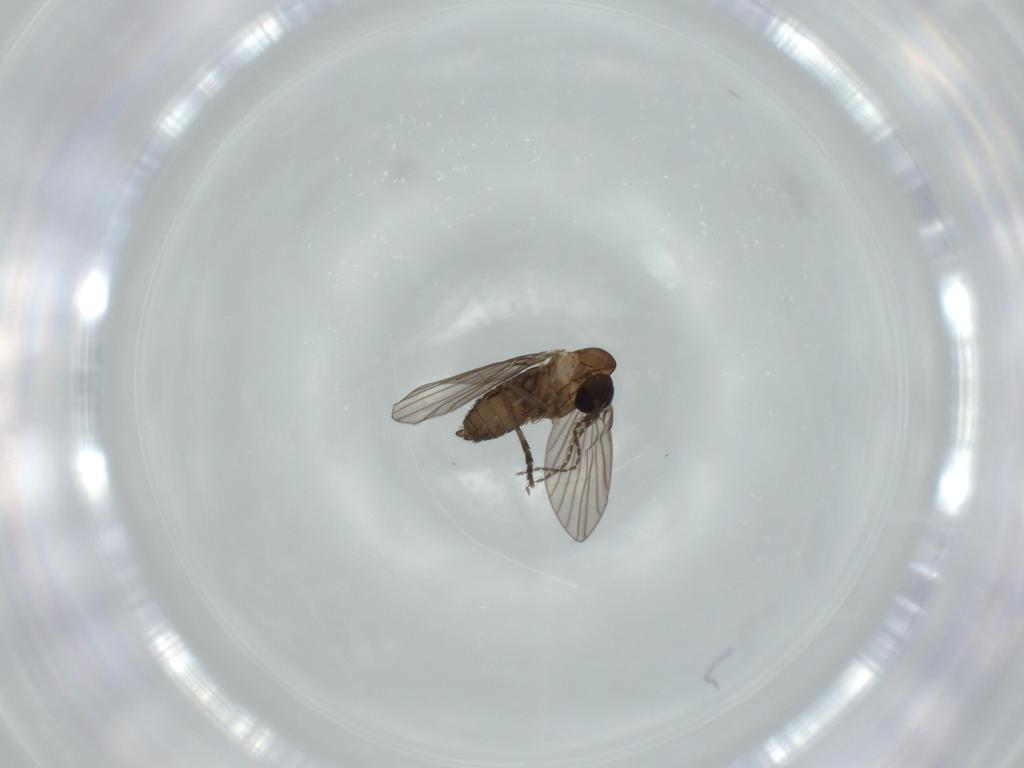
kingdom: Animalia
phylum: Arthropoda
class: Insecta
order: Diptera
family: Psychodidae
